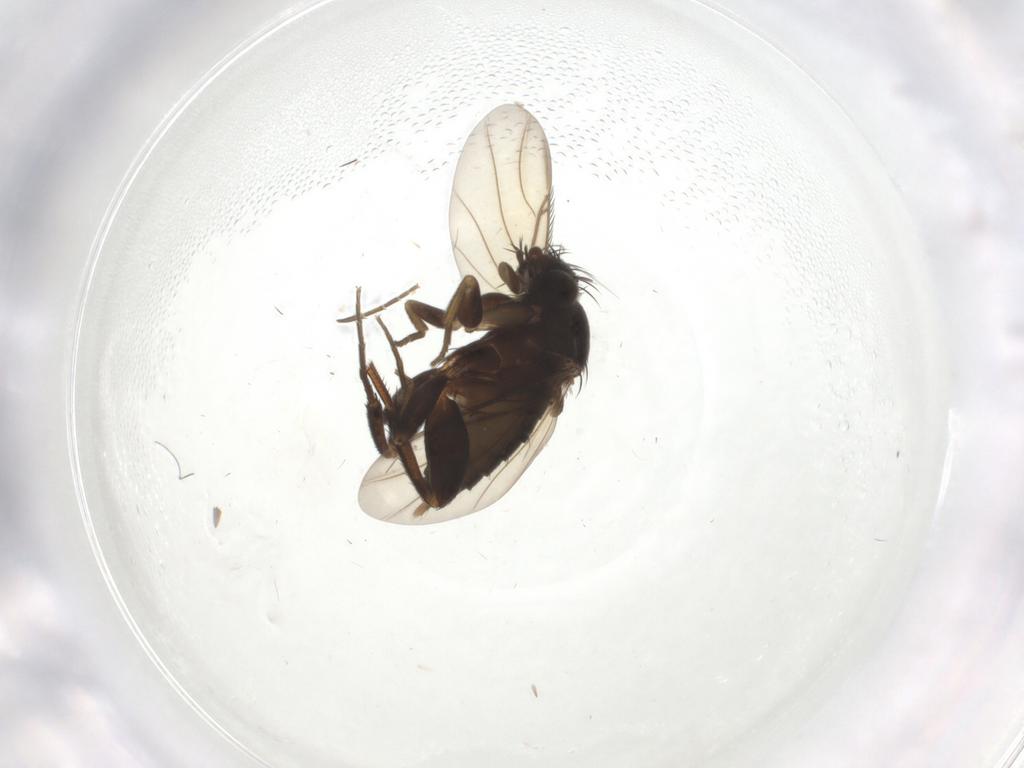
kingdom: Animalia
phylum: Arthropoda
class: Insecta
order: Diptera
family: Phoridae
